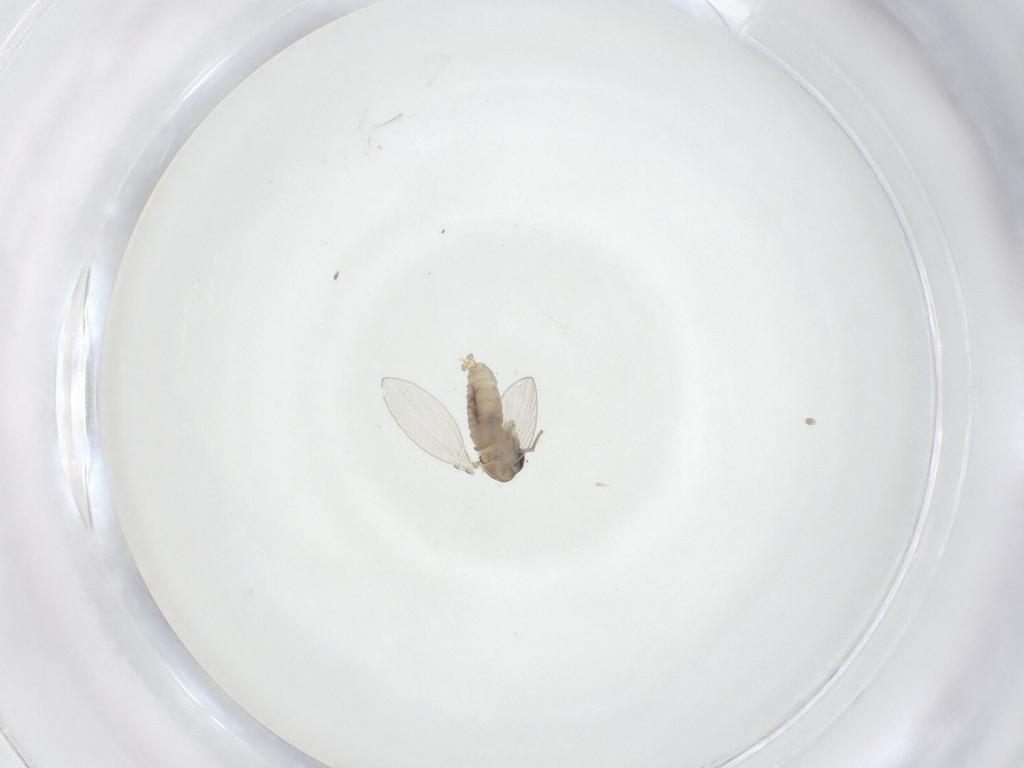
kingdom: Animalia
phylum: Arthropoda
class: Insecta
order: Diptera
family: Psychodidae
